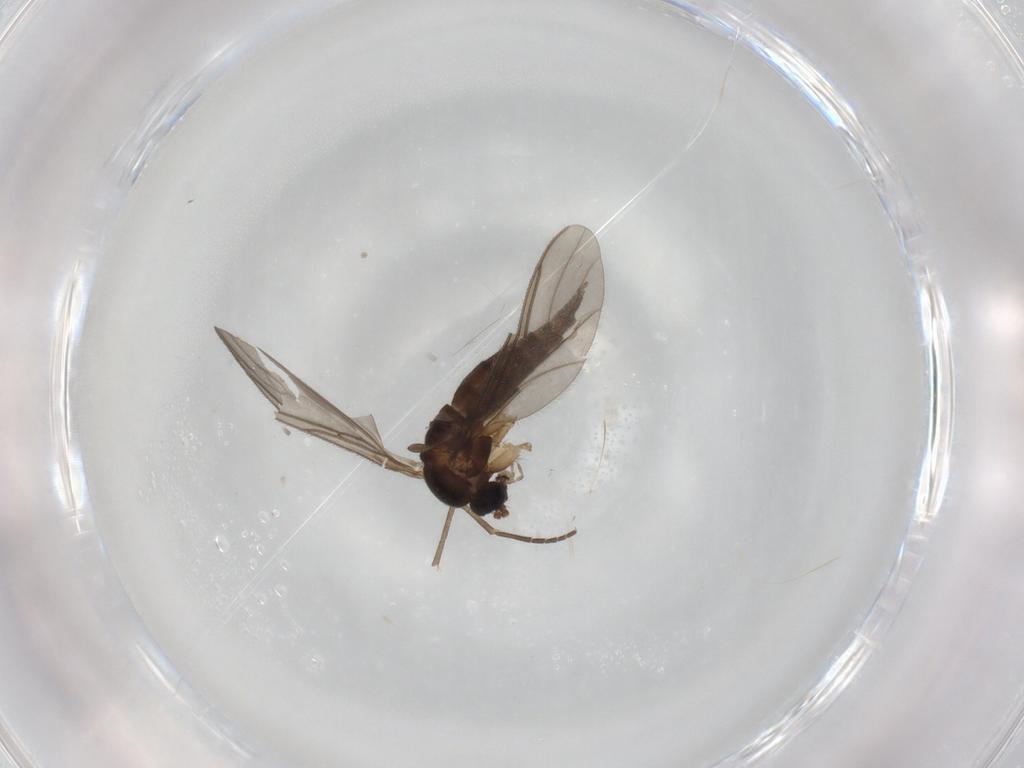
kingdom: Animalia
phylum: Arthropoda
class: Insecta
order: Diptera
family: Sciaridae
